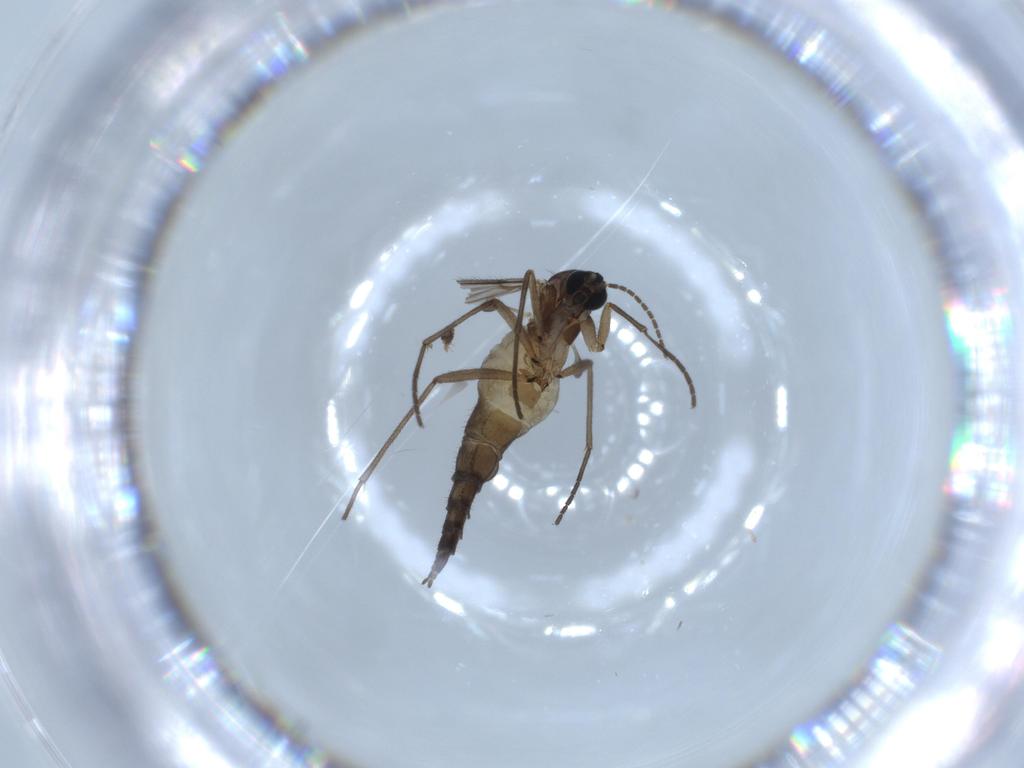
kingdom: Animalia
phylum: Arthropoda
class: Insecta
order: Diptera
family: Sciaridae
